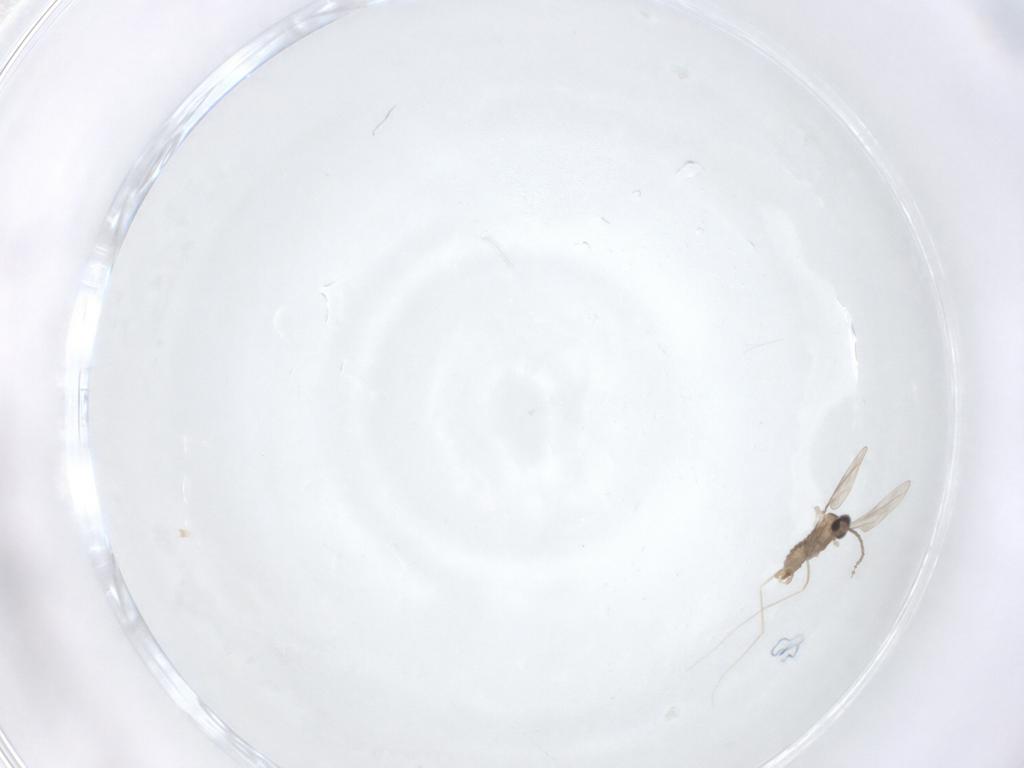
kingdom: Animalia
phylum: Arthropoda
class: Insecta
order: Diptera
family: Cecidomyiidae
